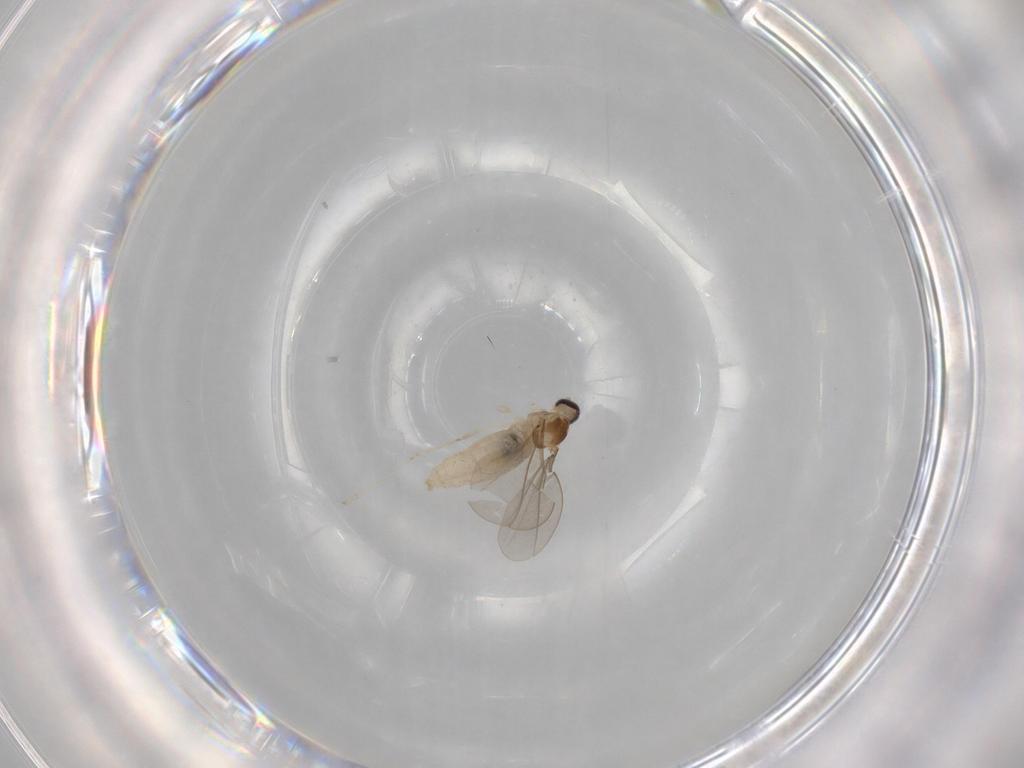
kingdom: Animalia
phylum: Arthropoda
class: Insecta
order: Diptera
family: Cecidomyiidae
